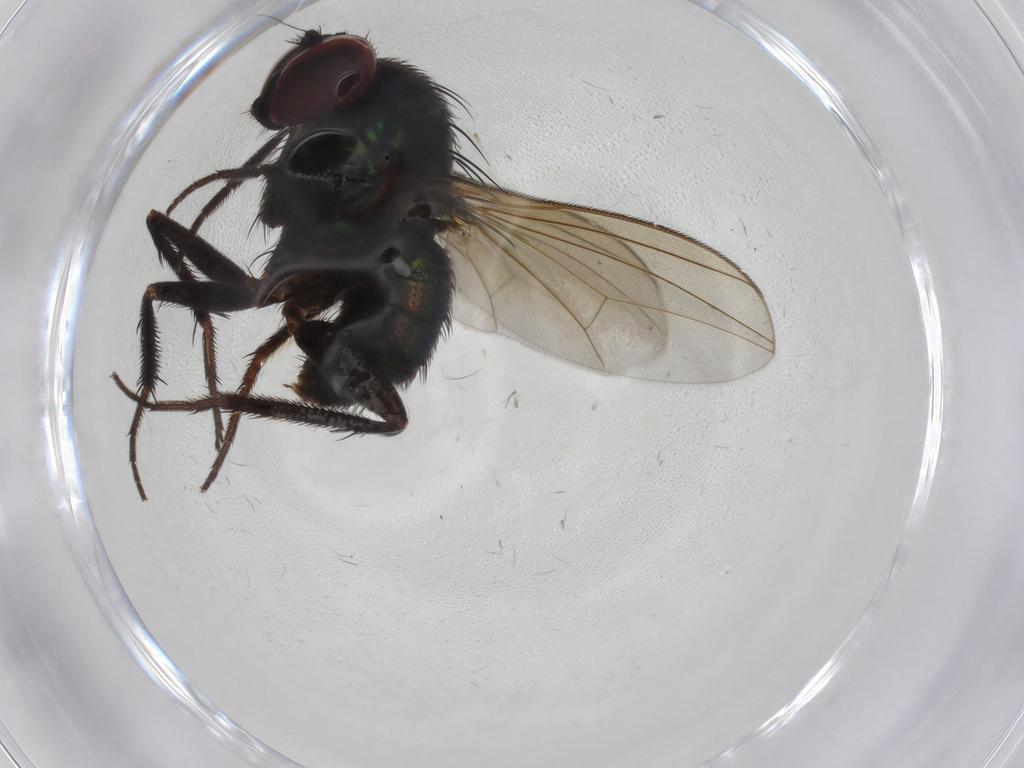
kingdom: Animalia
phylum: Arthropoda
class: Insecta
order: Diptera
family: Dolichopodidae
